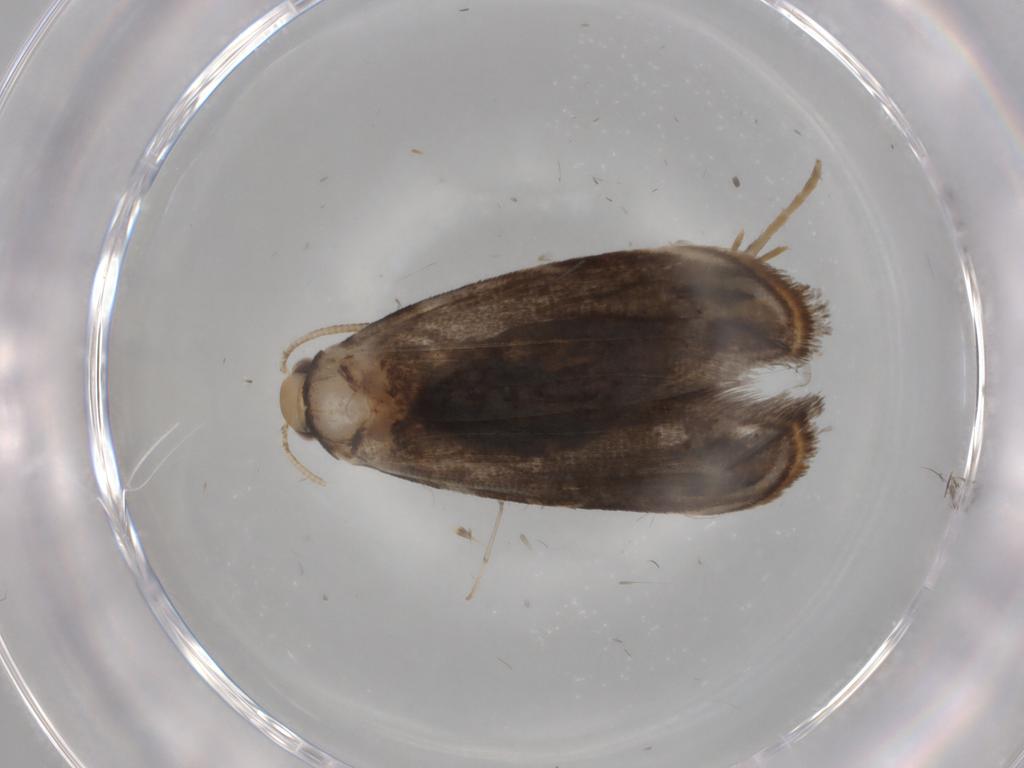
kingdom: Animalia
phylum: Arthropoda
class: Insecta
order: Lepidoptera
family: Dryadaulidae
